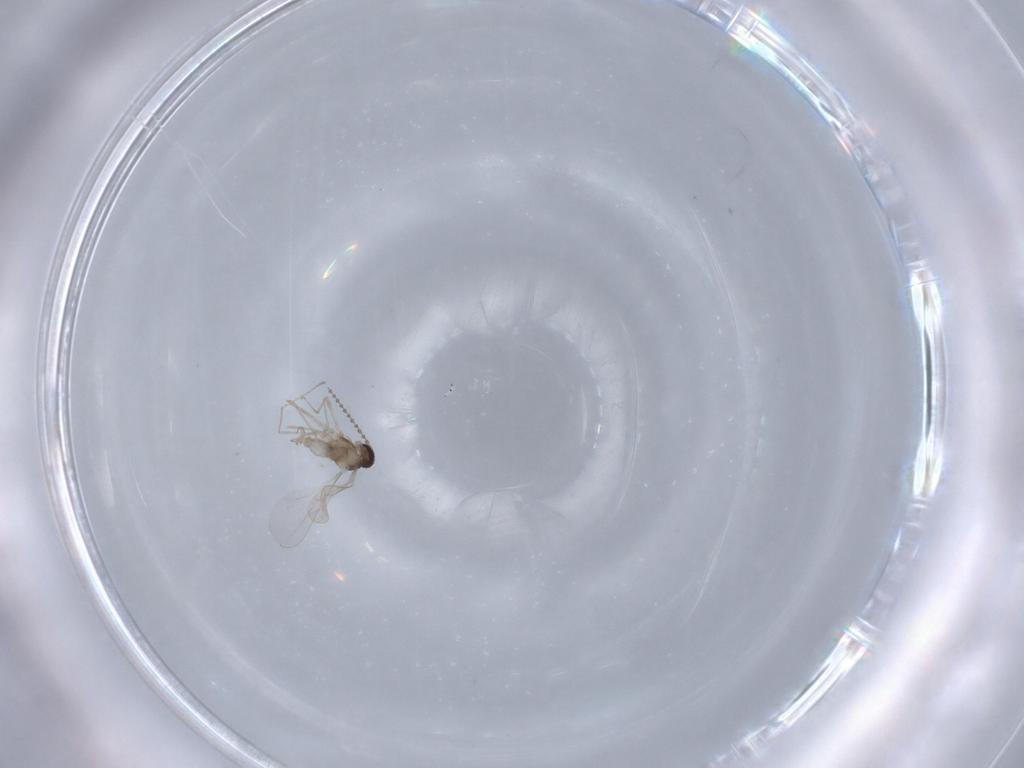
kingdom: Animalia
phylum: Arthropoda
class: Insecta
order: Diptera
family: Cecidomyiidae
